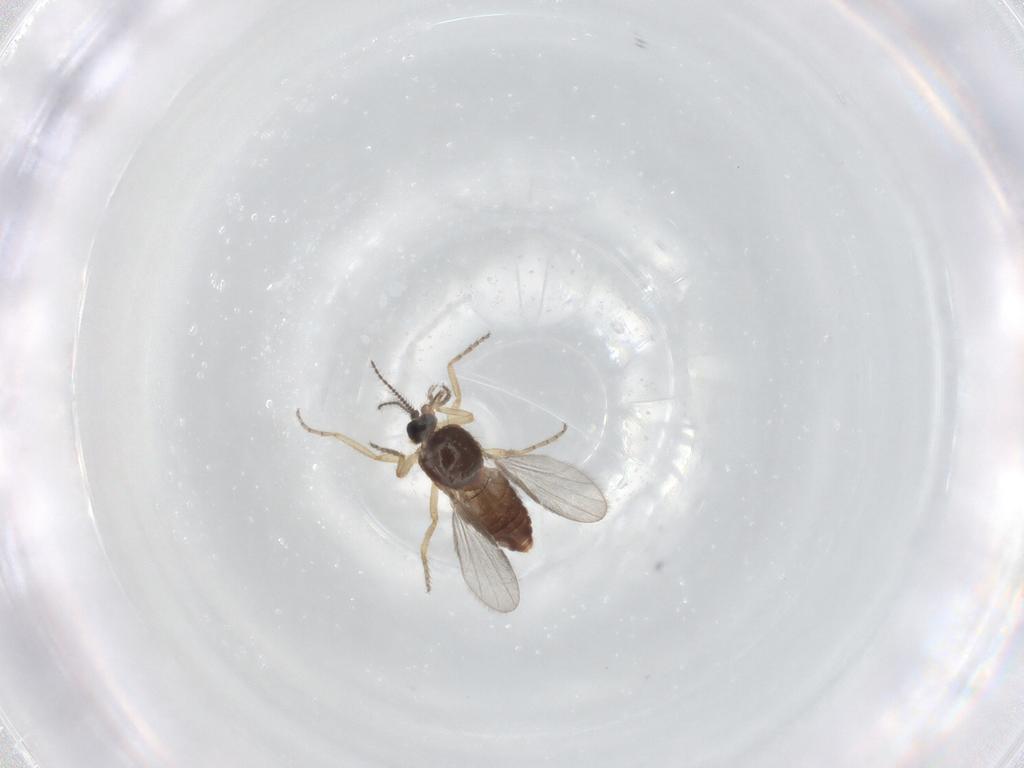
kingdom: Animalia
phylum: Arthropoda
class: Insecta
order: Diptera
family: Ceratopogonidae
